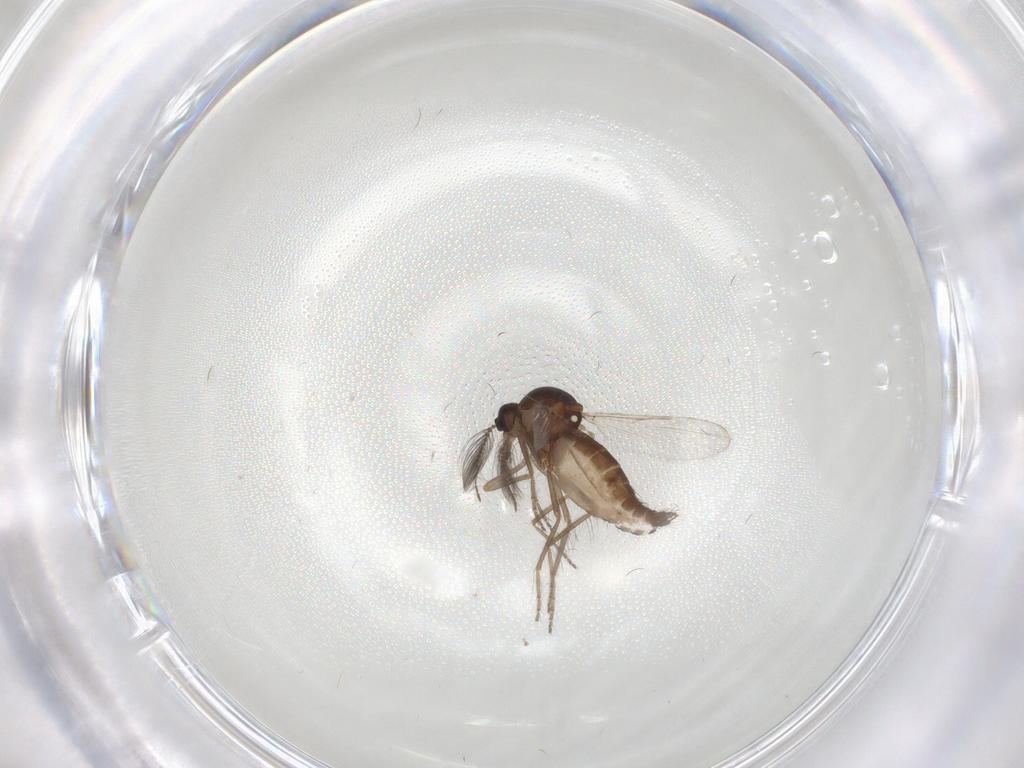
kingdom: Animalia
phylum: Arthropoda
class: Insecta
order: Diptera
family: Ceratopogonidae
